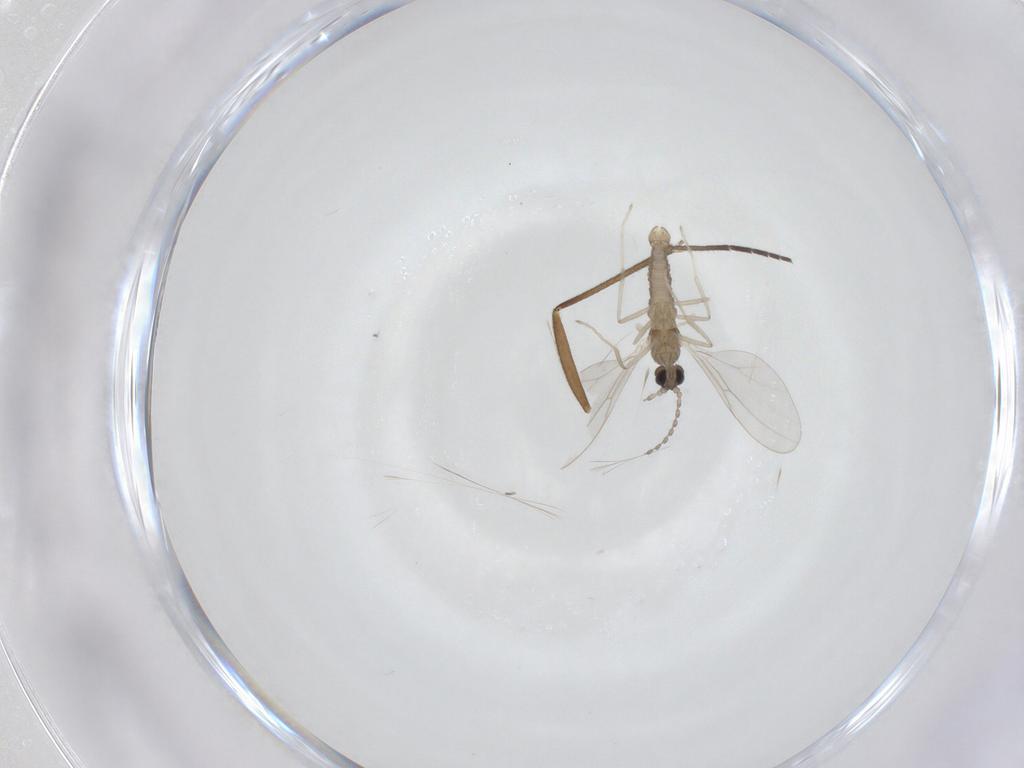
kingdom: Animalia
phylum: Arthropoda
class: Insecta
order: Diptera
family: Cecidomyiidae
